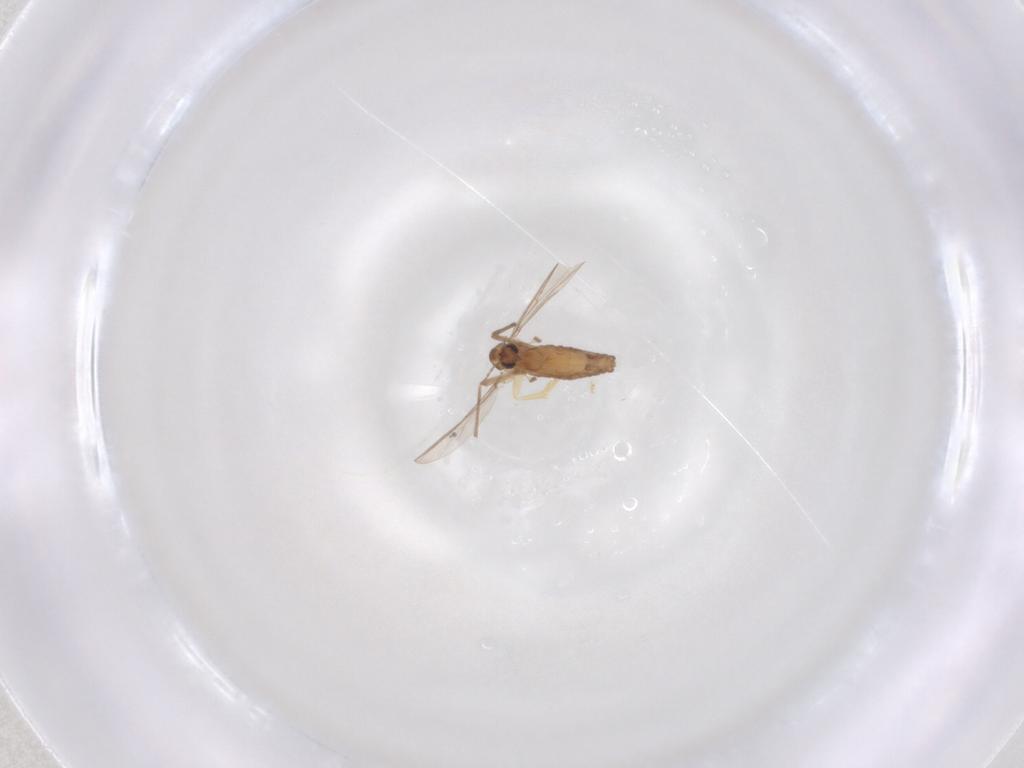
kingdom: Animalia
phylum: Arthropoda
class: Insecta
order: Diptera
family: Chironomidae
